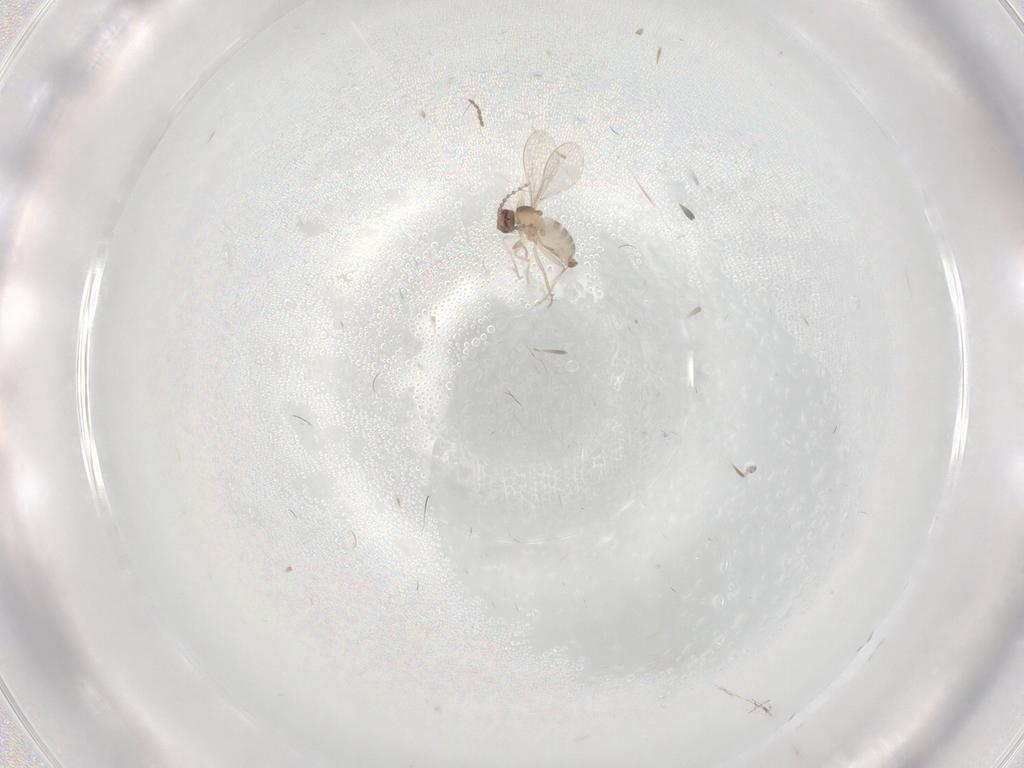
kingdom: Animalia
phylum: Arthropoda
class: Insecta
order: Diptera
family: Cecidomyiidae
